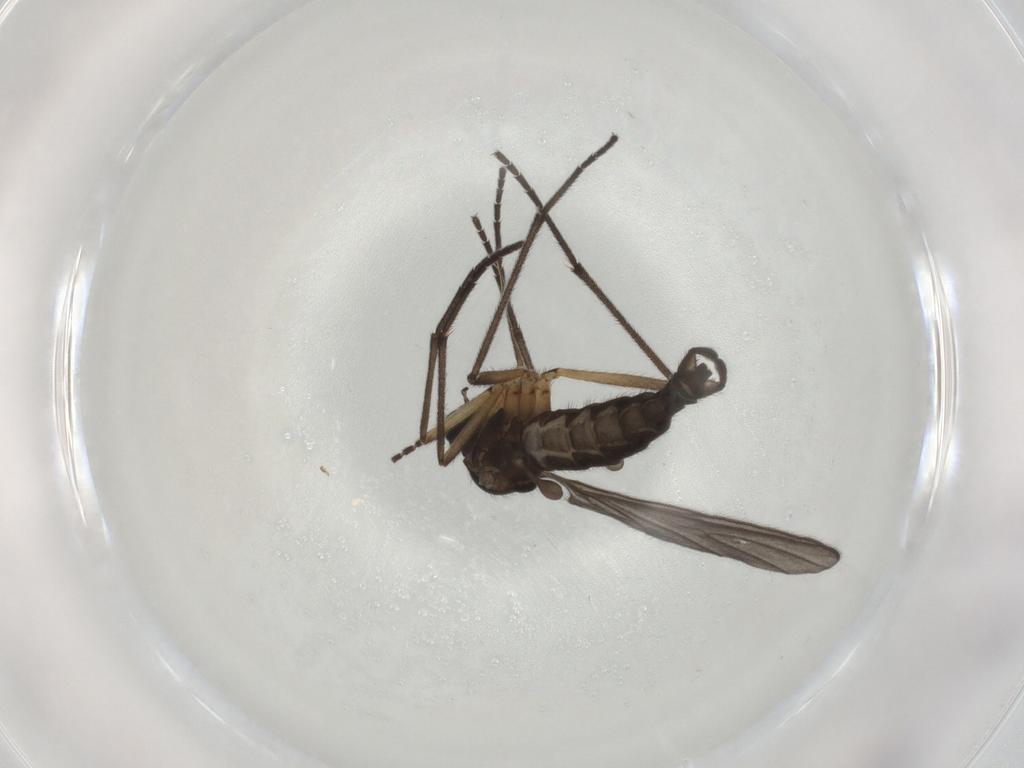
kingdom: Animalia
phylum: Arthropoda
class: Insecta
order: Diptera
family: Sciaridae
